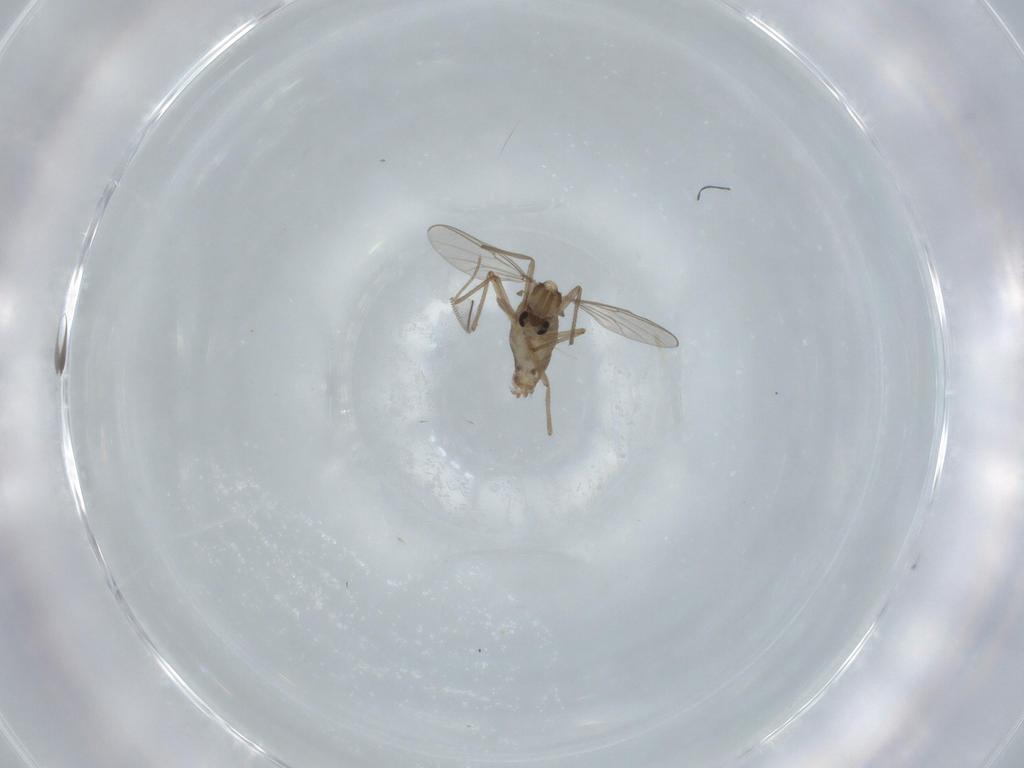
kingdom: Animalia
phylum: Arthropoda
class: Insecta
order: Diptera
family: Chironomidae
